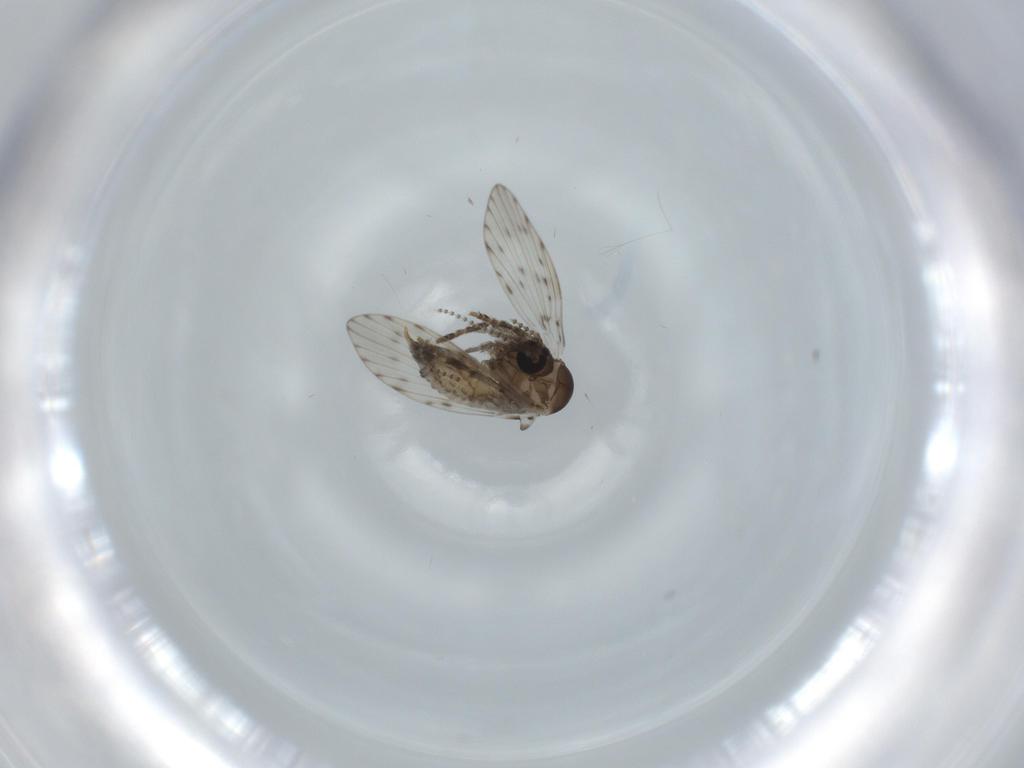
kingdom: Animalia
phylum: Arthropoda
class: Insecta
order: Diptera
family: Psychodidae
